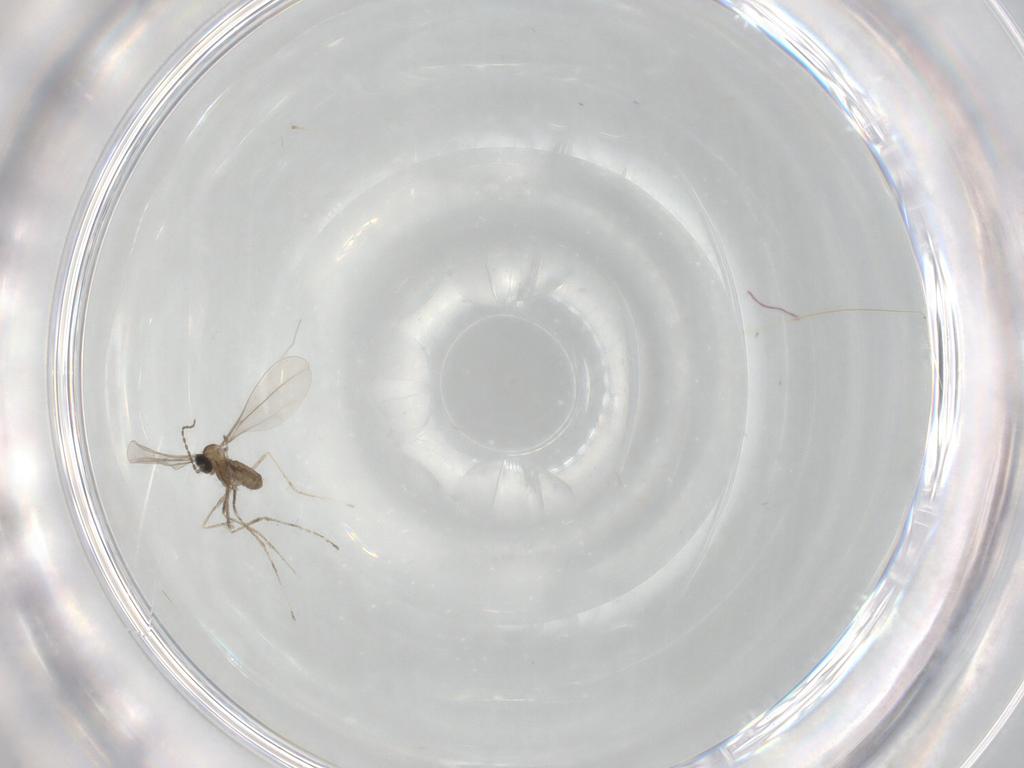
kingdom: Animalia
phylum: Arthropoda
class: Insecta
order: Diptera
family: Cecidomyiidae
